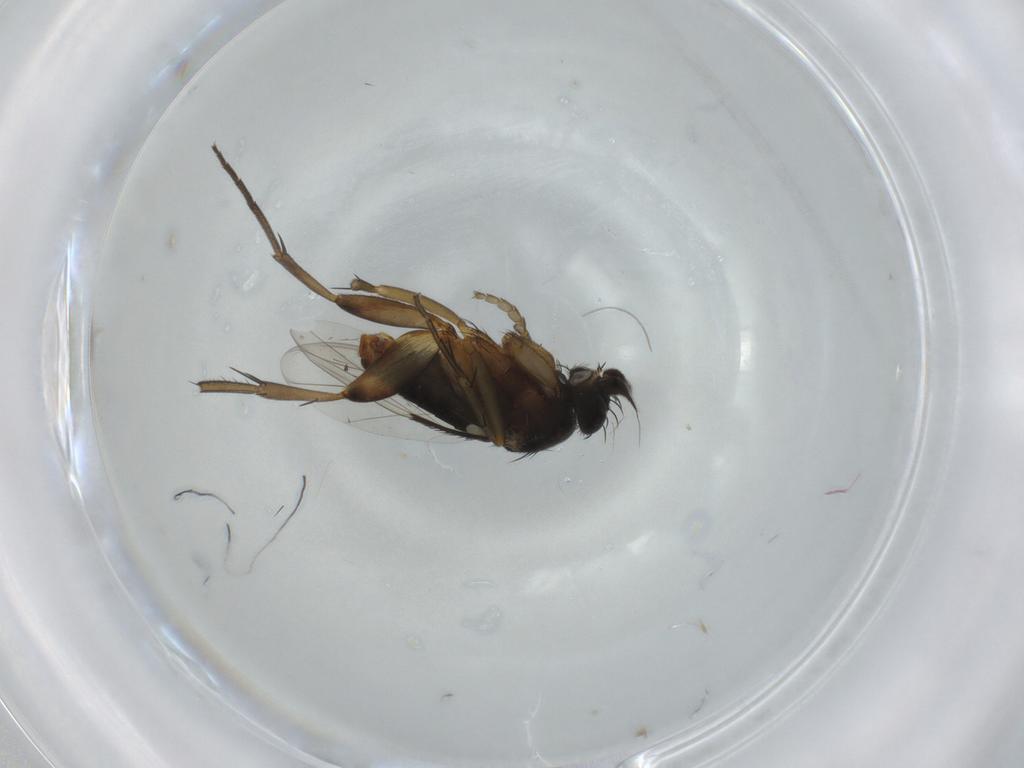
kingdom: Animalia
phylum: Arthropoda
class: Insecta
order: Diptera
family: Phoridae
